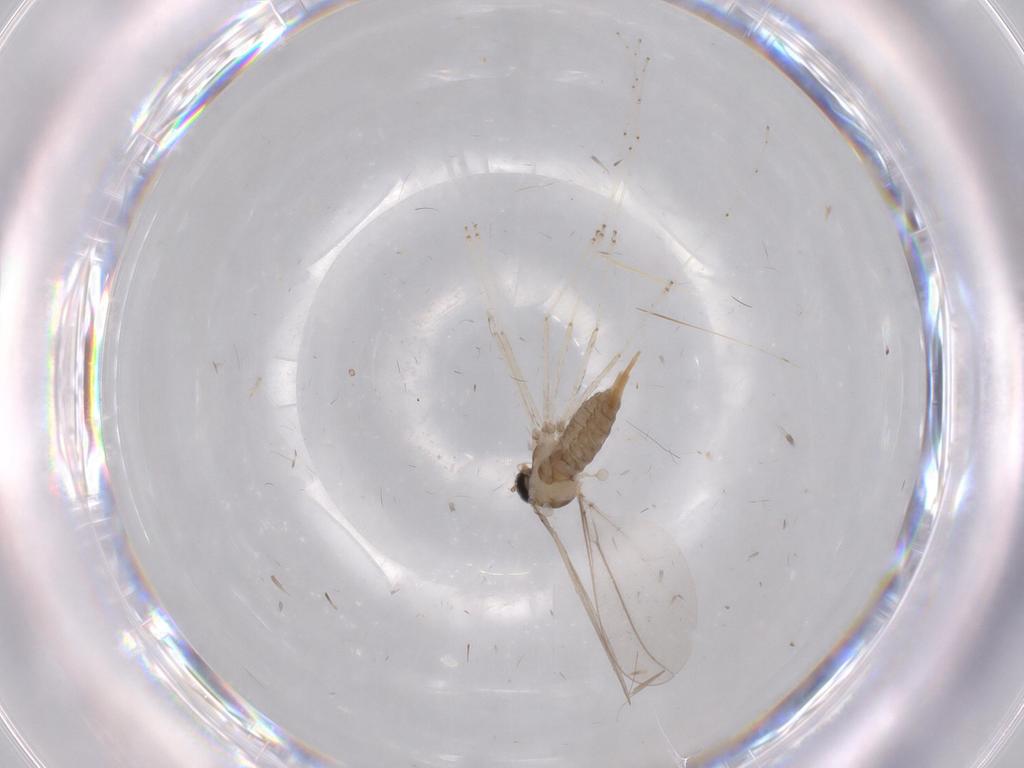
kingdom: Animalia
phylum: Arthropoda
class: Insecta
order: Diptera
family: Cecidomyiidae
